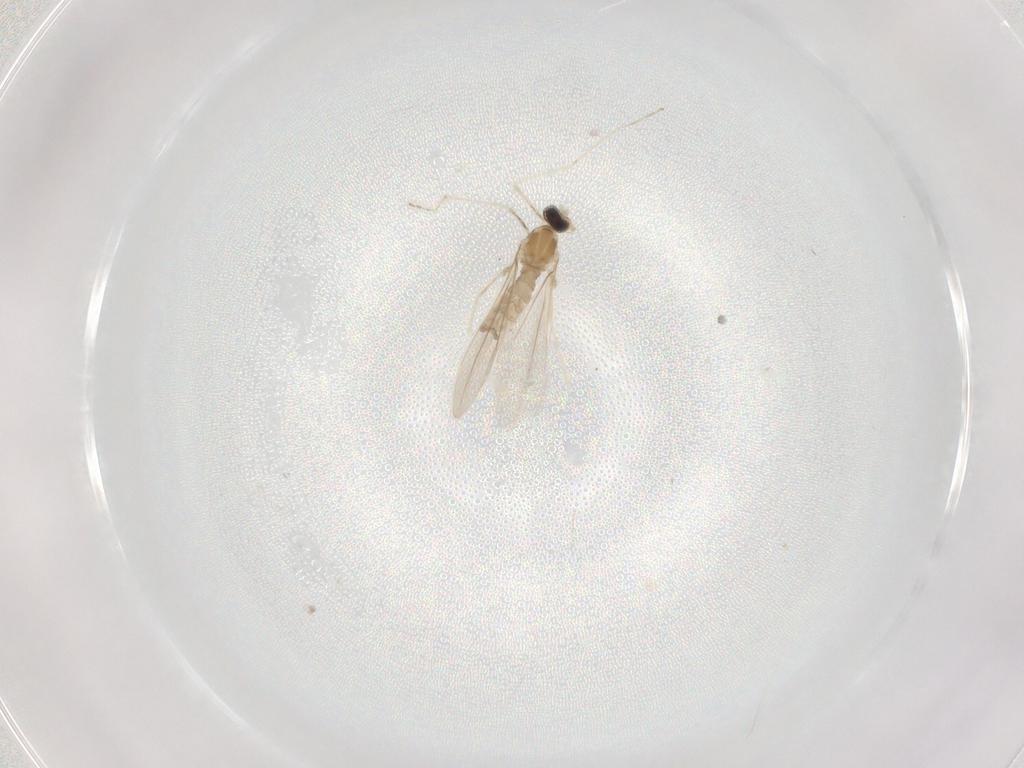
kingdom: Animalia
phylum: Arthropoda
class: Insecta
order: Diptera
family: Cecidomyiidae
